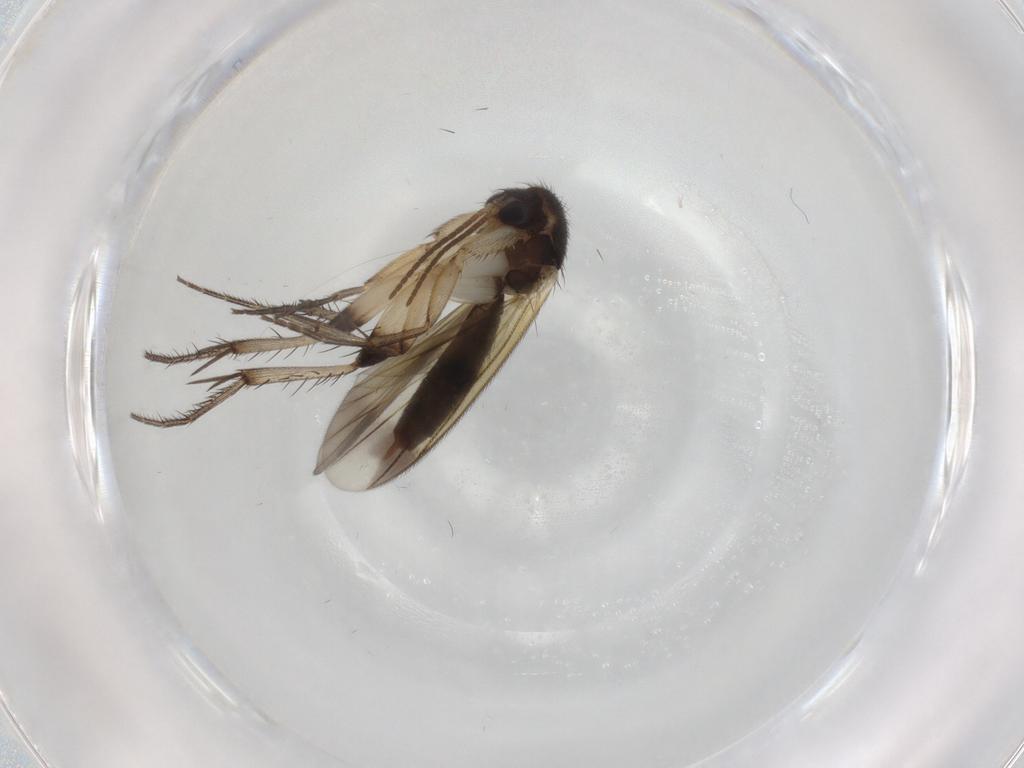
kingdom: Animalia
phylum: Arthropoda
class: Insecta
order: Diptera
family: Mycetophilidae
